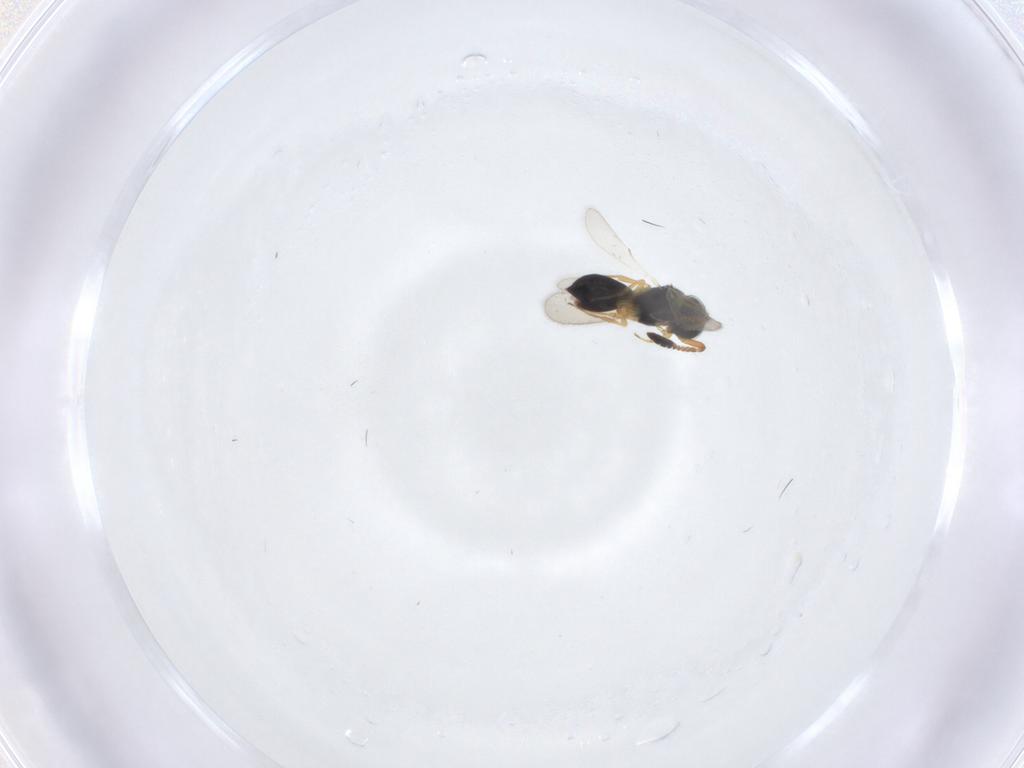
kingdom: Animalia
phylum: Arthropoda
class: Insecta
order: Hymenoptera
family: Scelionidae
